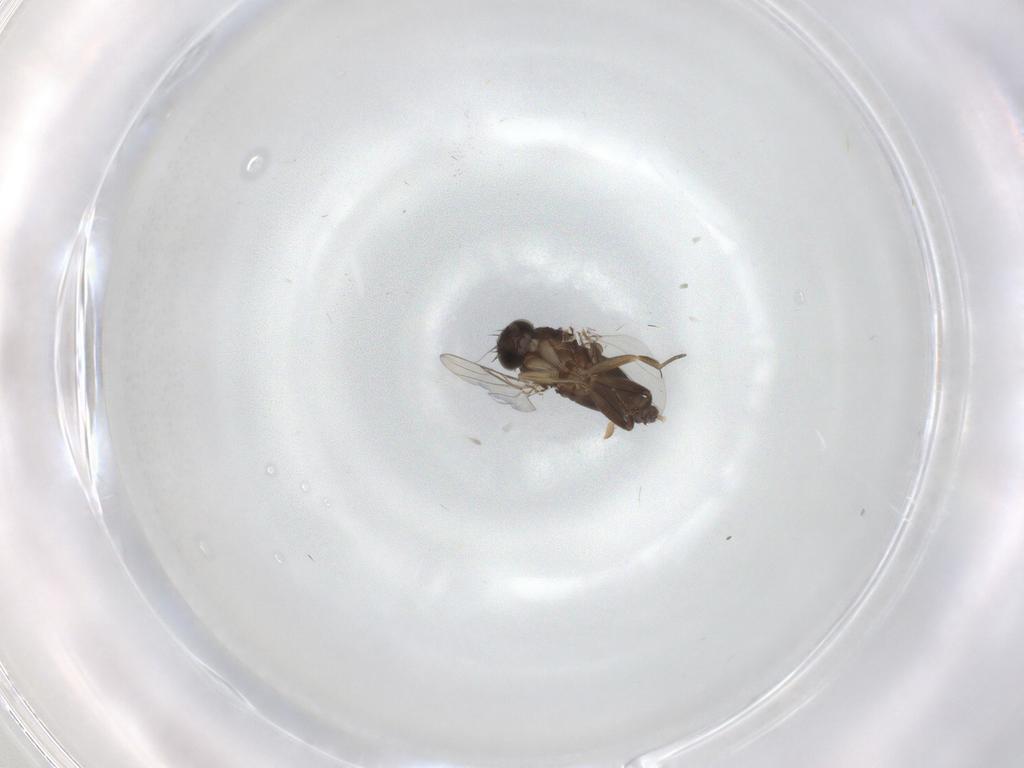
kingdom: Animalia
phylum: Arthropoda
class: Insecta
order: Diptera
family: Phoridae
